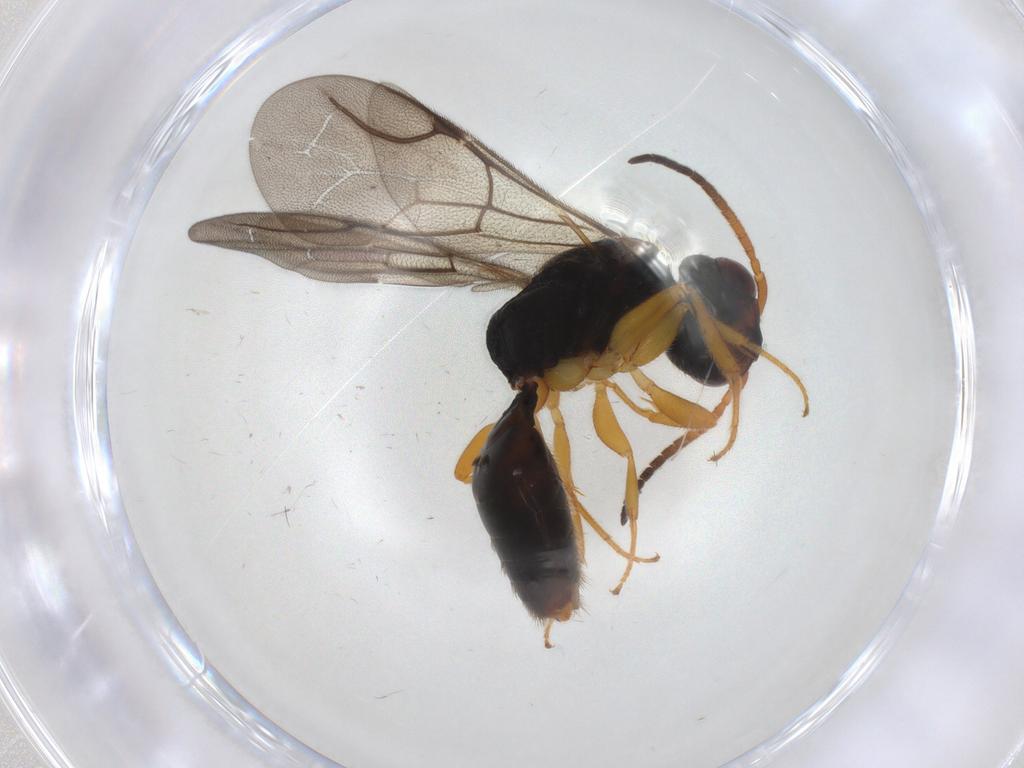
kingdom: Animalia
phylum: Arthropoda
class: Insecta
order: Hymenoptera
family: Bethylidae
